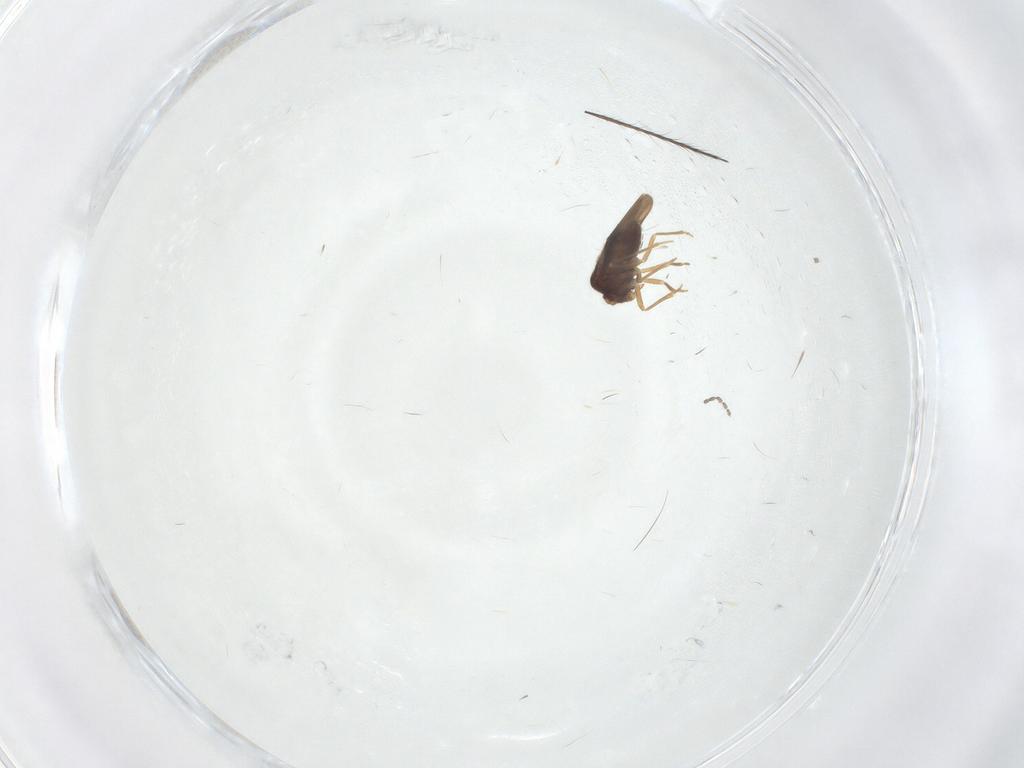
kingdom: Animalia
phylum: Arthropoda
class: Insecta
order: Hemiptera
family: Schizopteridae
